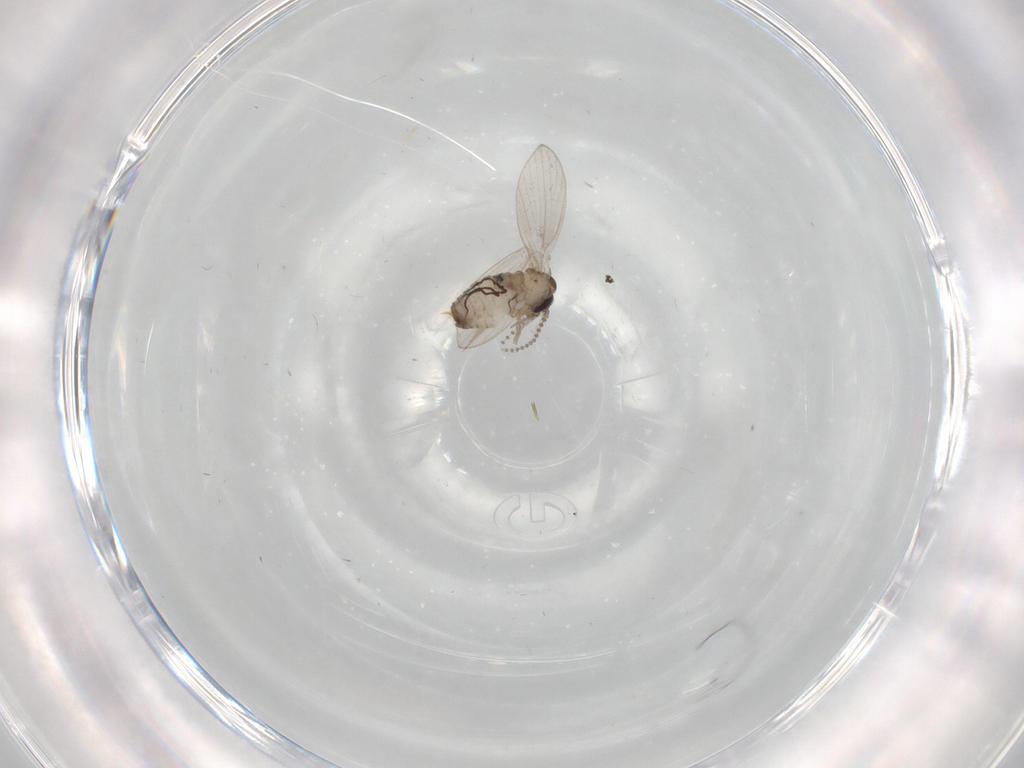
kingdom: Animalia
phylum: Arthropoda
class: Insecta
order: Diptera
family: Psychodidae
